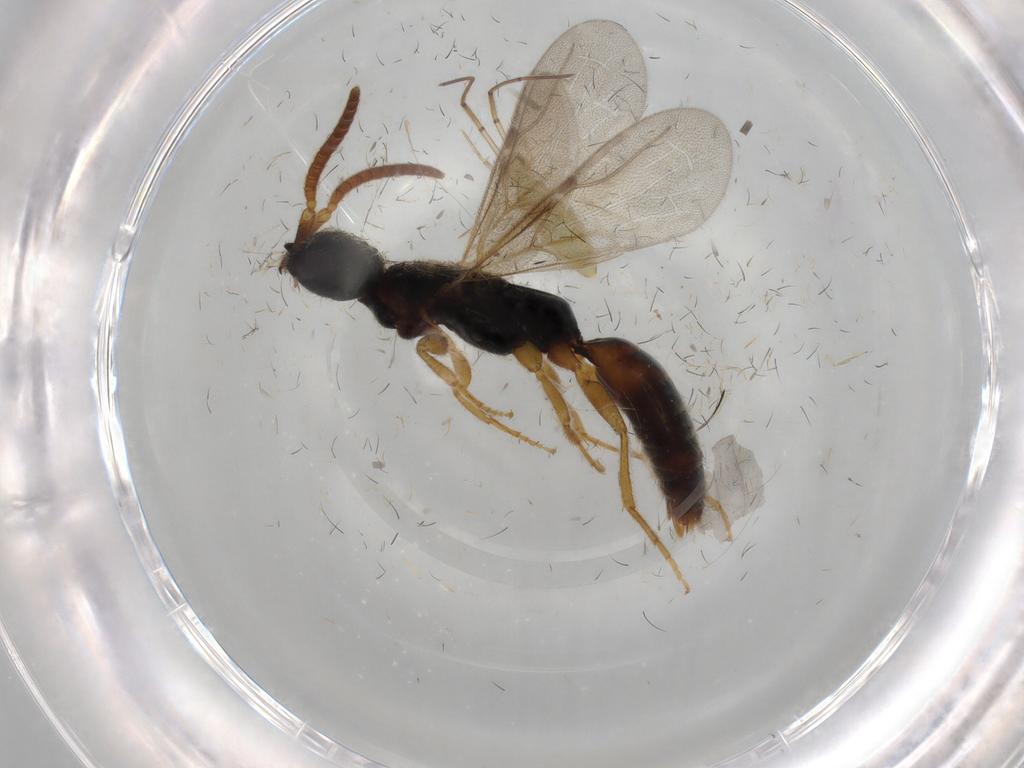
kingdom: Animalia
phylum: Arthropoda
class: Insecta
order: Hymenoptera
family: Bethylidae
